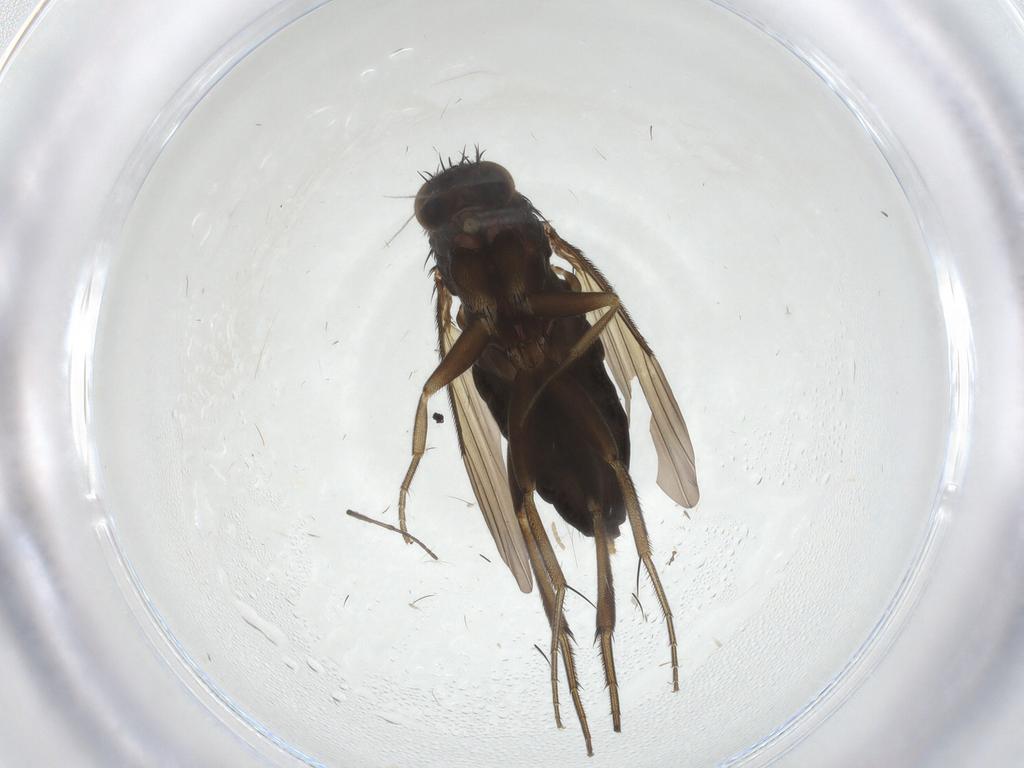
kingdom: Animalia
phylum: Arthropoda
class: Insecta
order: Diptera
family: Phoridae
